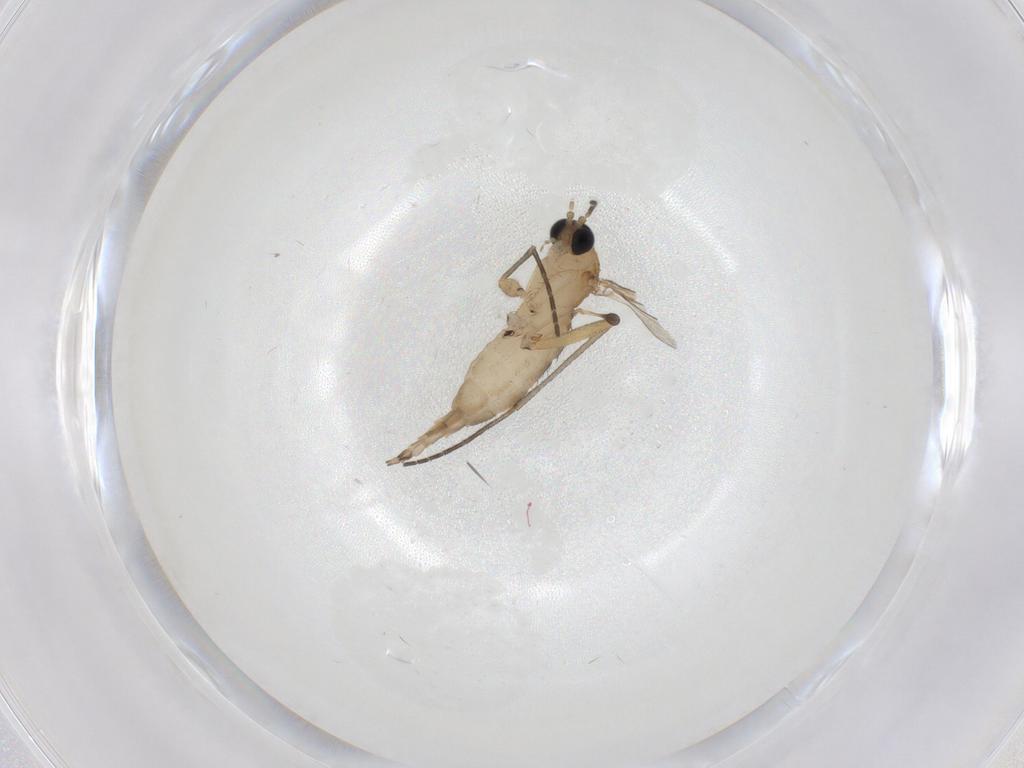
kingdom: Animalia
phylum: Arthropoda
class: Insecta
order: Diptera
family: Sciaridae
